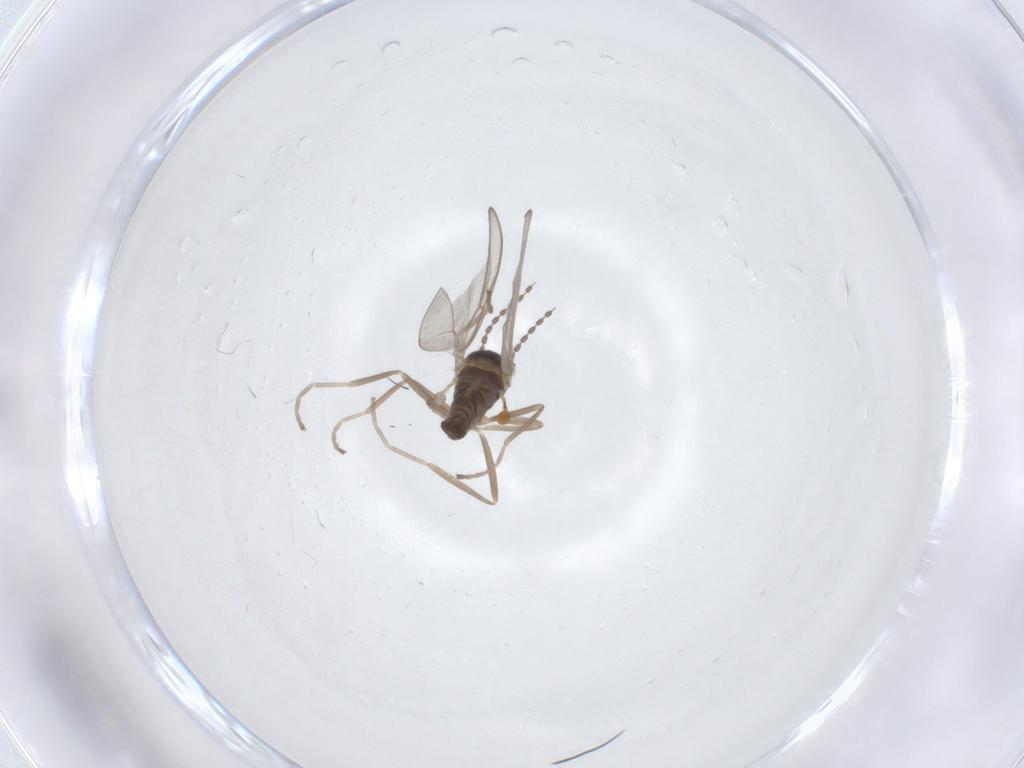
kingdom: Animalia
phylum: Arthropoda
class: Insecta
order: Diptera
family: Cecidomyiidae
